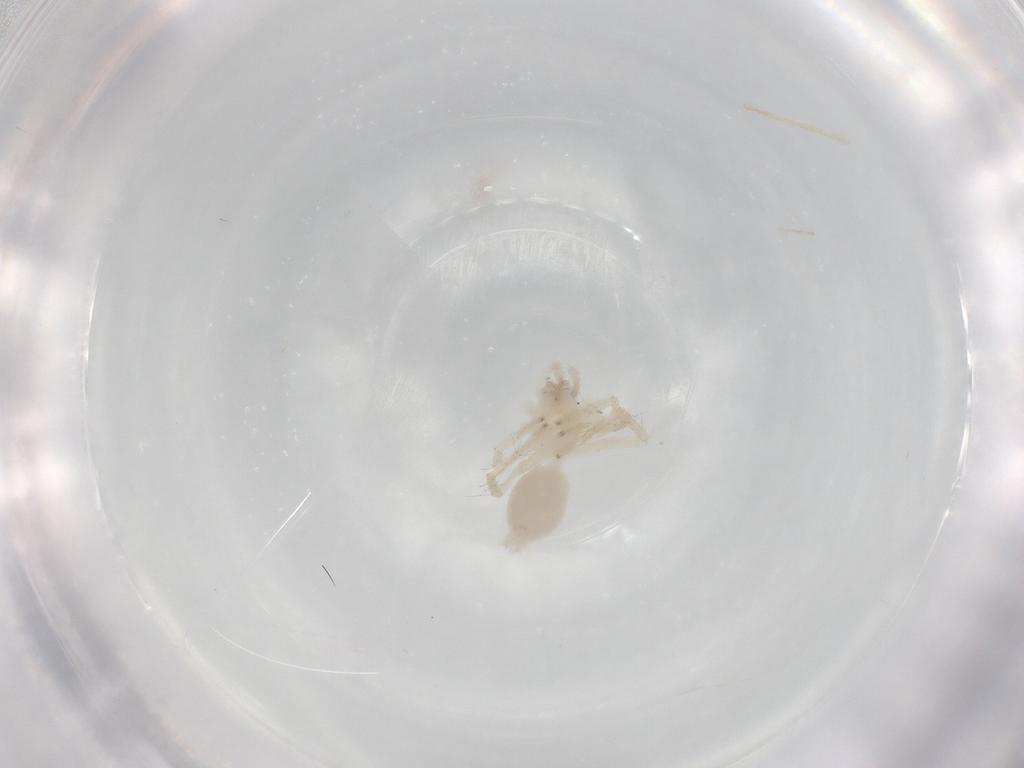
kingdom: Animalia
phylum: Arthropoda
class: Arachnida
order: Araneae
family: Anyphaenidae
